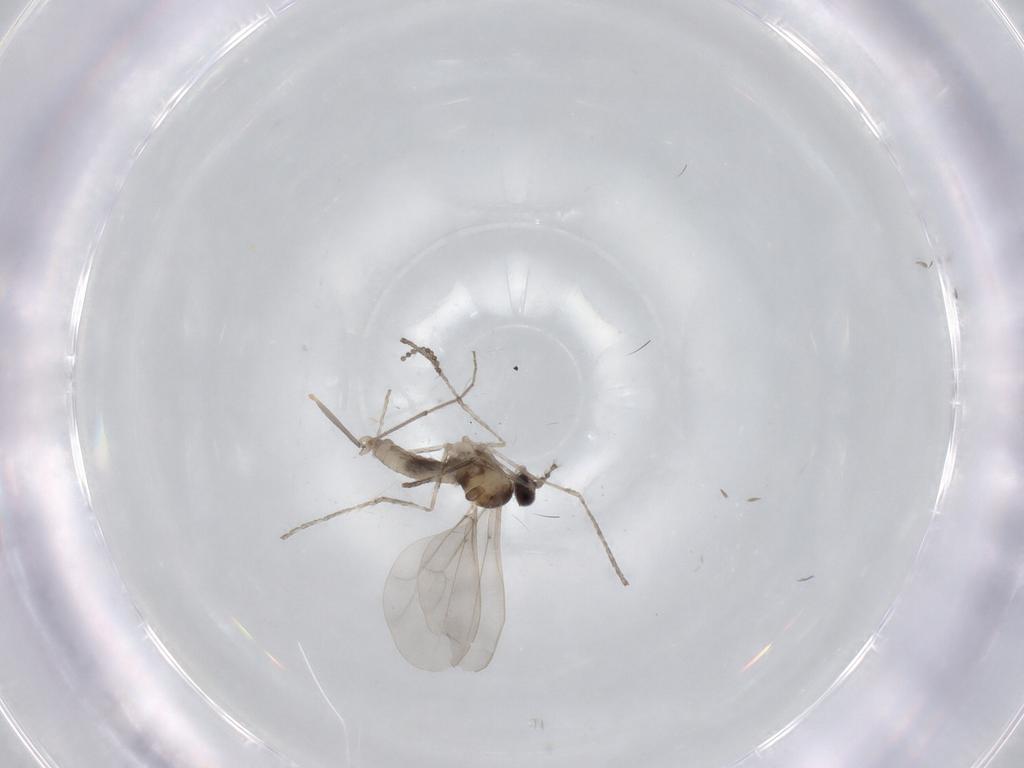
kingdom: Animalia
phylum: Arthropoda
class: Insecta
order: Diptera
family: Cecidomyiidae
